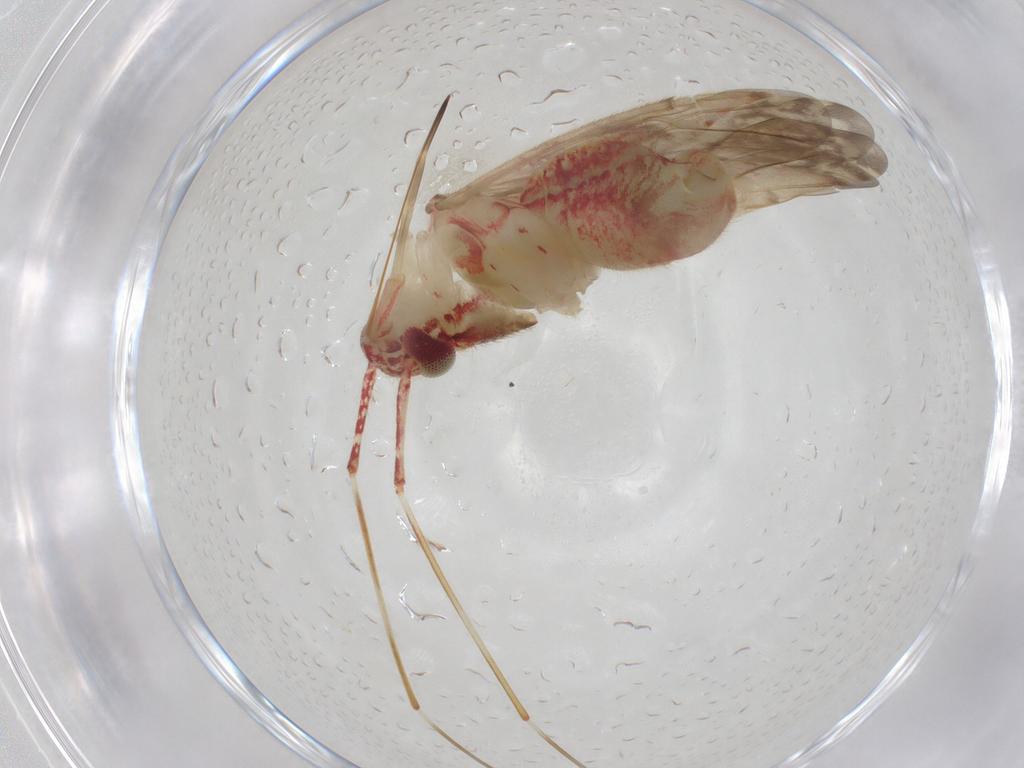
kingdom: Animalia
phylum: Arthropoda
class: Insecta
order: Hemiptera
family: Miridae
